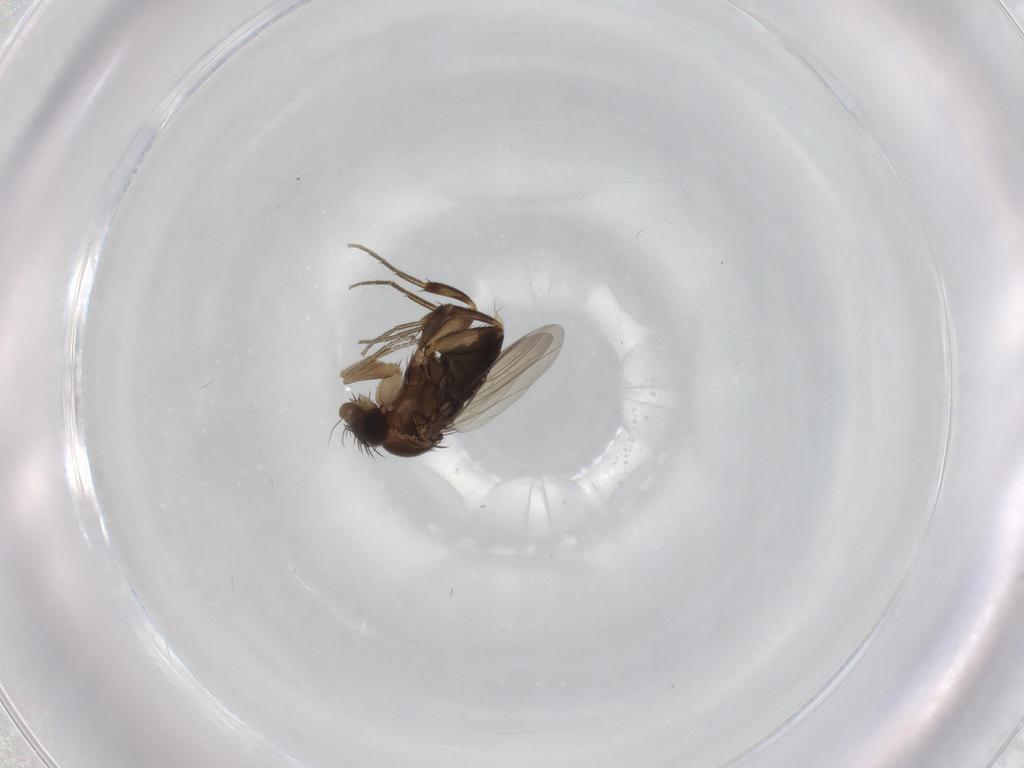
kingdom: Animalia
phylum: Arthropoda
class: Insecta
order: Diptera
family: Phoridae
